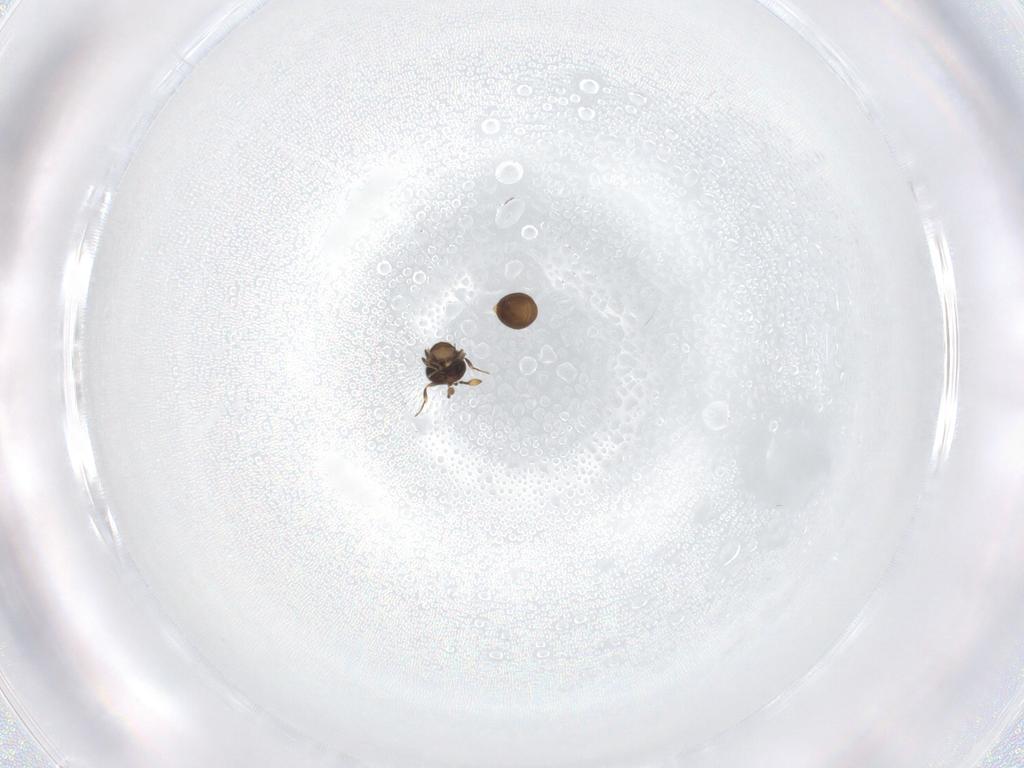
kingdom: Animalia
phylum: Arthropoda
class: Insecta
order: Hymenoptera
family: Scelionidae
